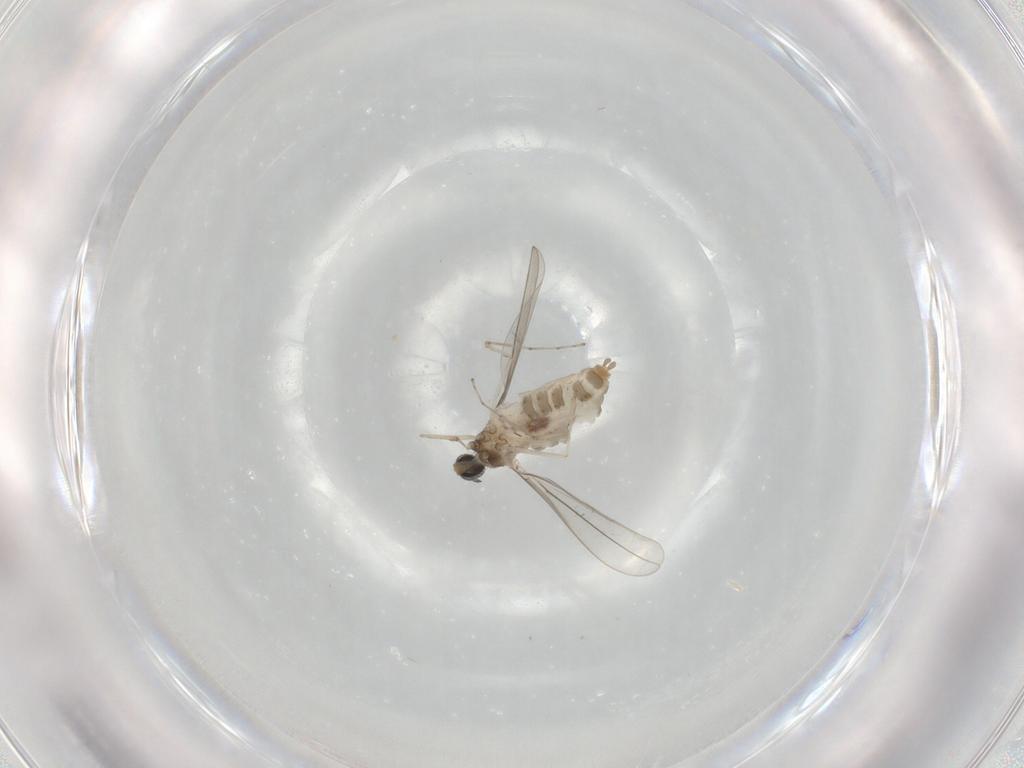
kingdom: Animalia
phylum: Arthropoda
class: Insecta
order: Diptera
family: Cecidomyiidae
